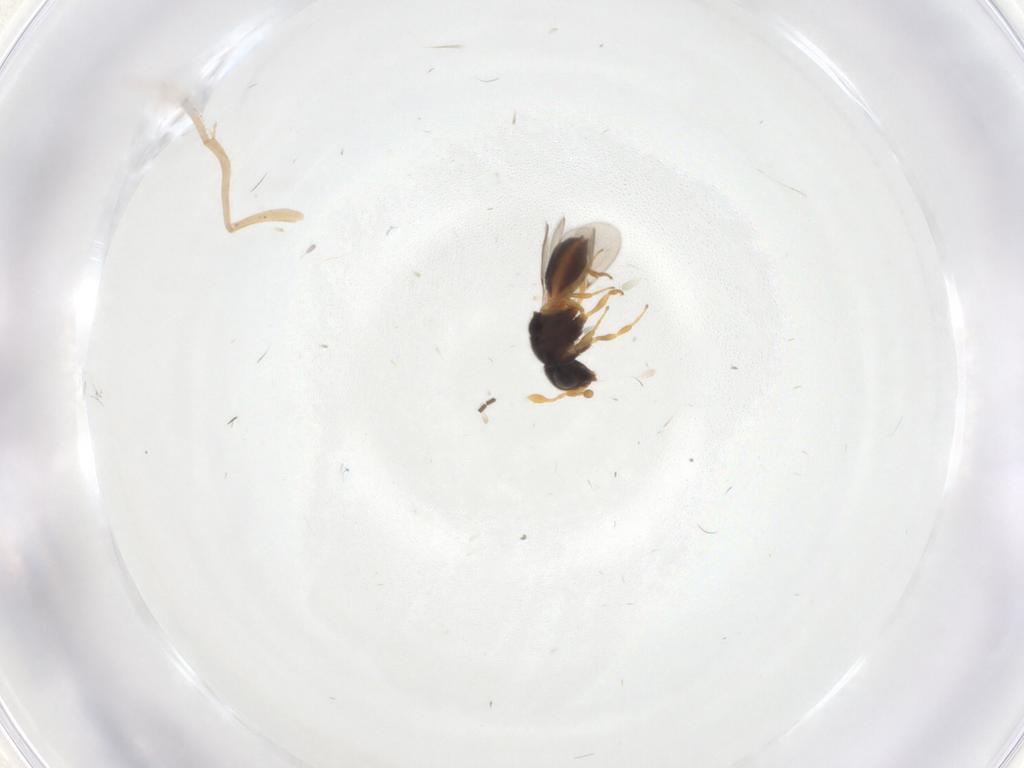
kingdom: Animalia
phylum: Arthropoda
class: Insecta
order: Hymenoptera
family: Scelionidae
